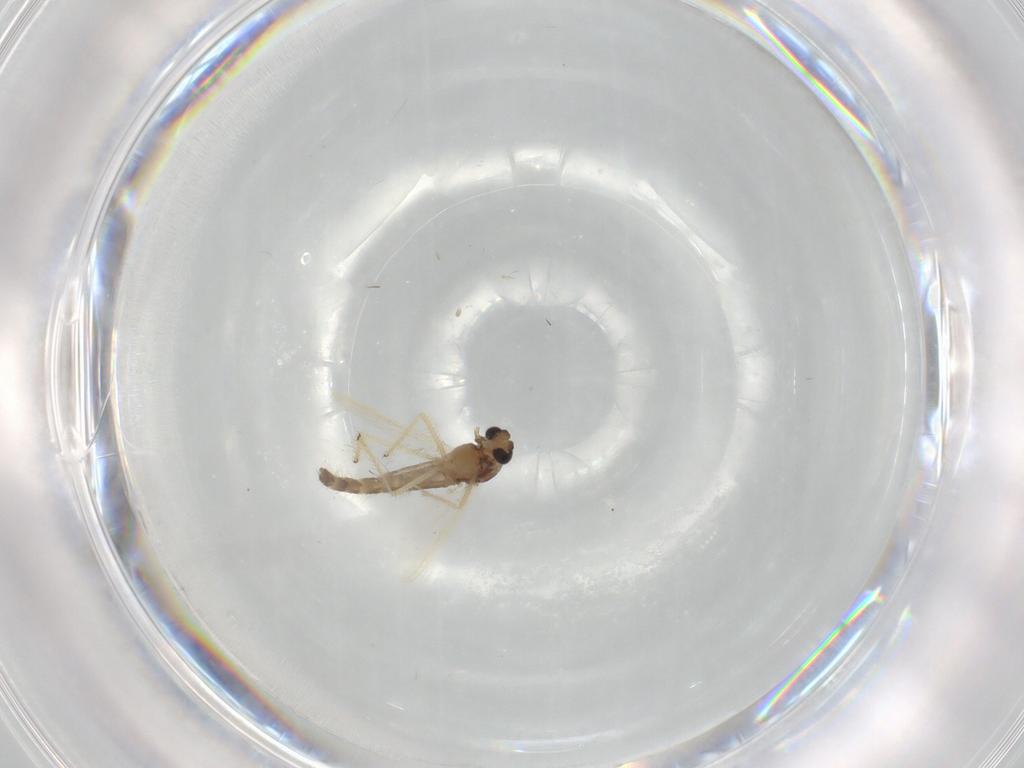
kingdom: Animalia
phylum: Arthropoda
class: Insecta
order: Diptera
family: Chironomidae
